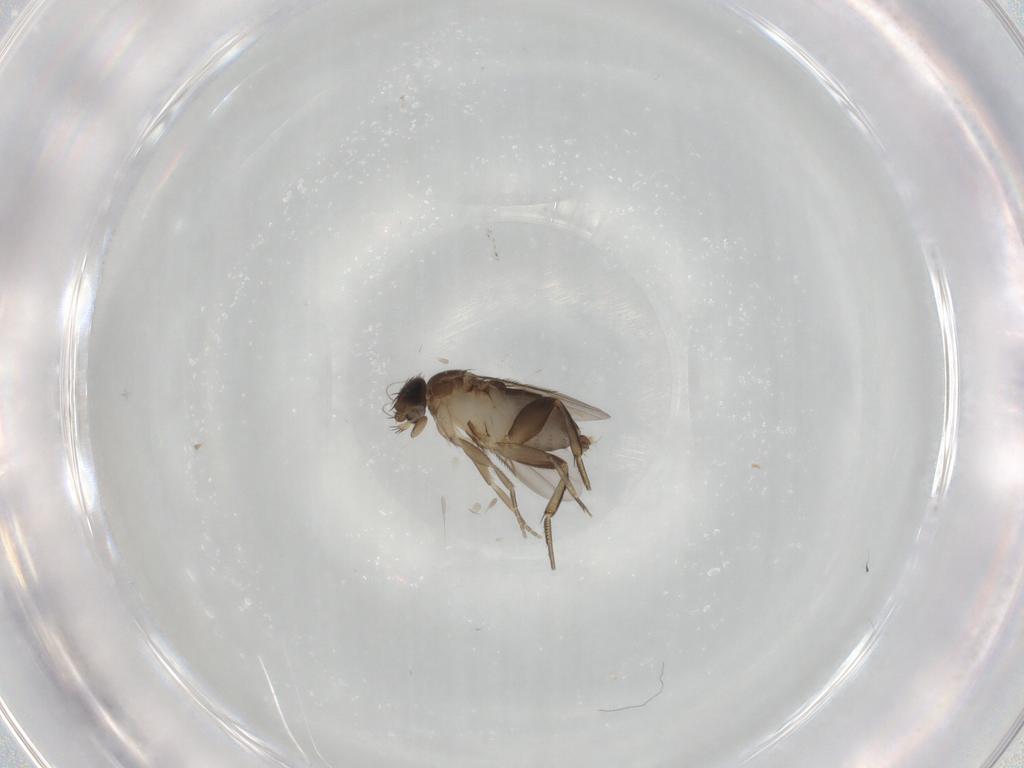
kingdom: Animalia
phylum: Arthropoda
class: Insecta
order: Diptera
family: Phoridae
